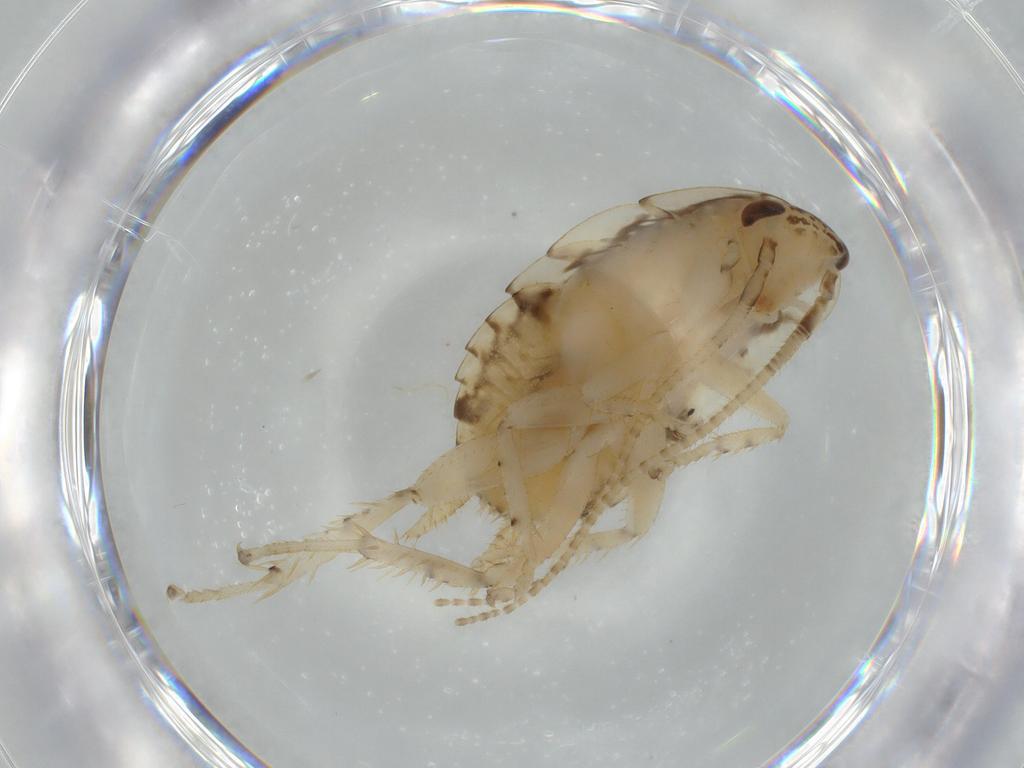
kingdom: Animalia
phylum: Arthropoda
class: Insecta
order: Blattodea
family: Ectobiidae
